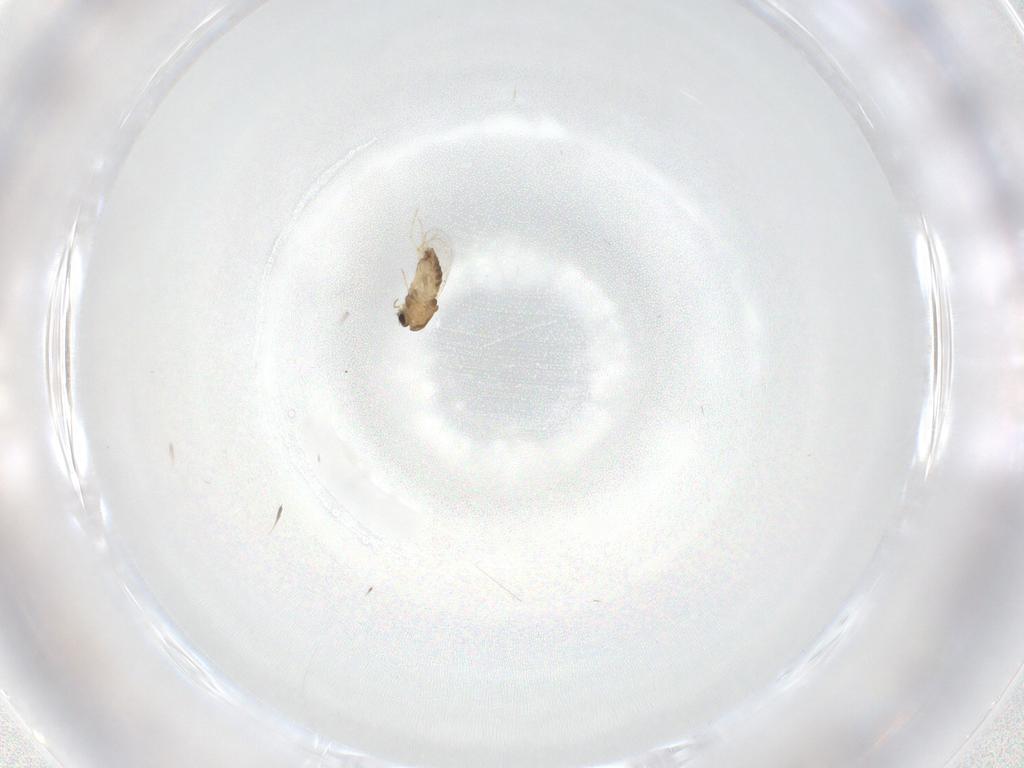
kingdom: Animalia
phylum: Arthropoda
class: Insecta
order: Diptera
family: Chironomidae
